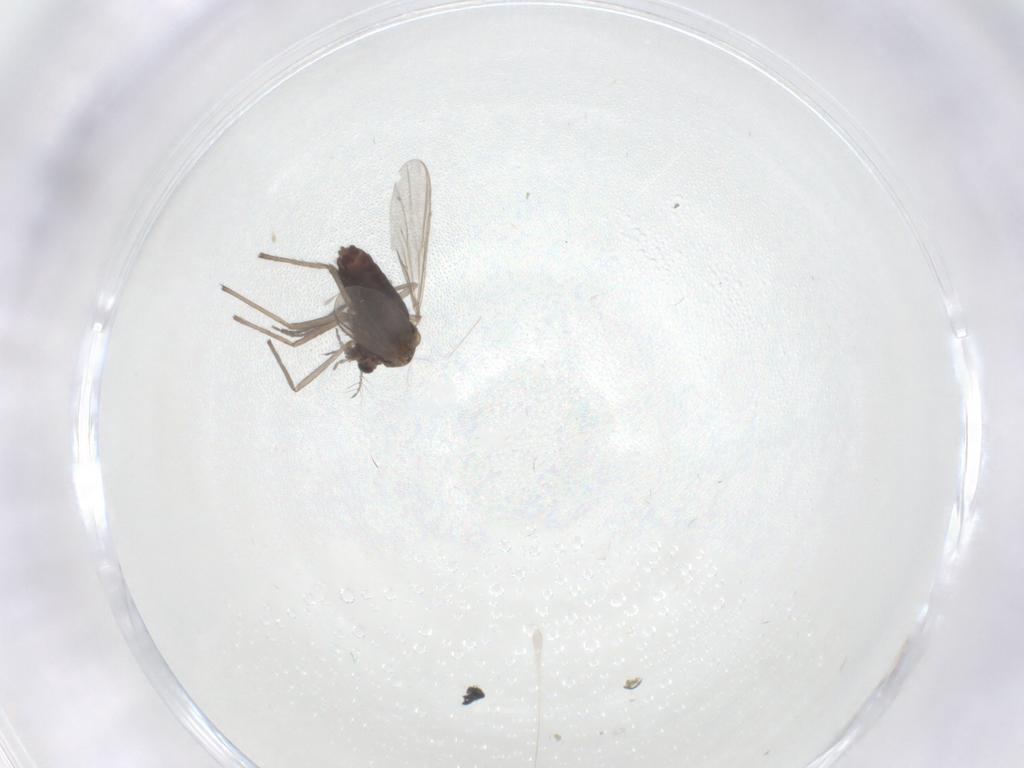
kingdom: Animalia
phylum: Arthropoda
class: Insecta
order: Diptera
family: Chironomidae
